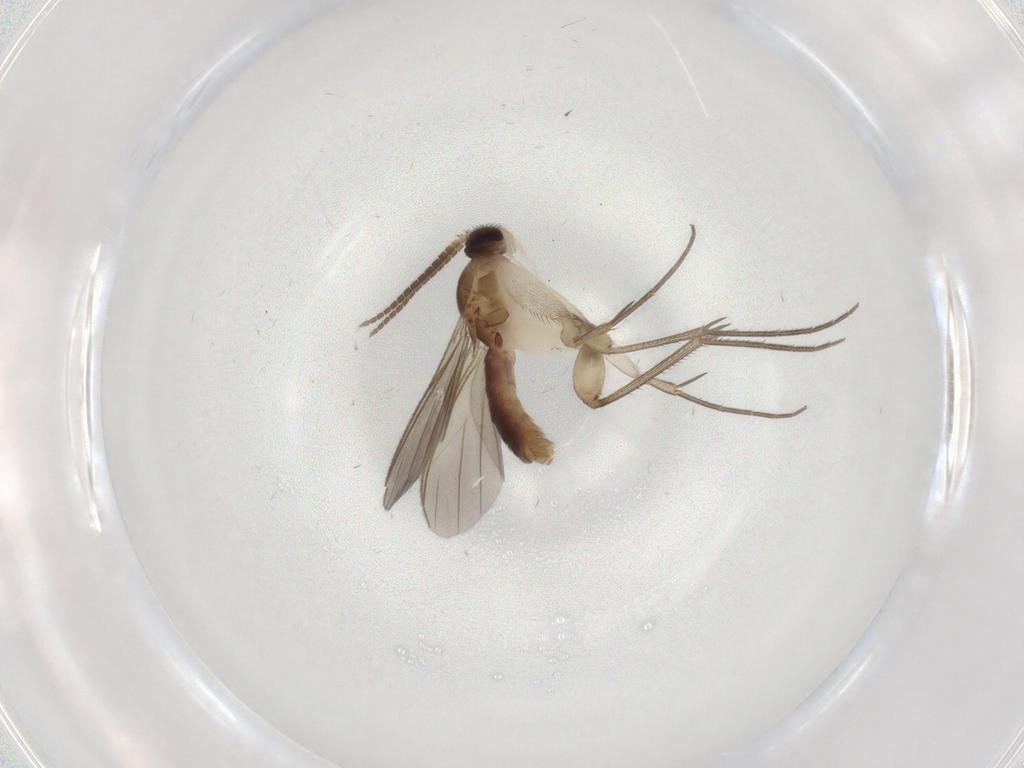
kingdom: Animalia
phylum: Arthropoda
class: Insecta
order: Diptera
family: Mycetophilidae
